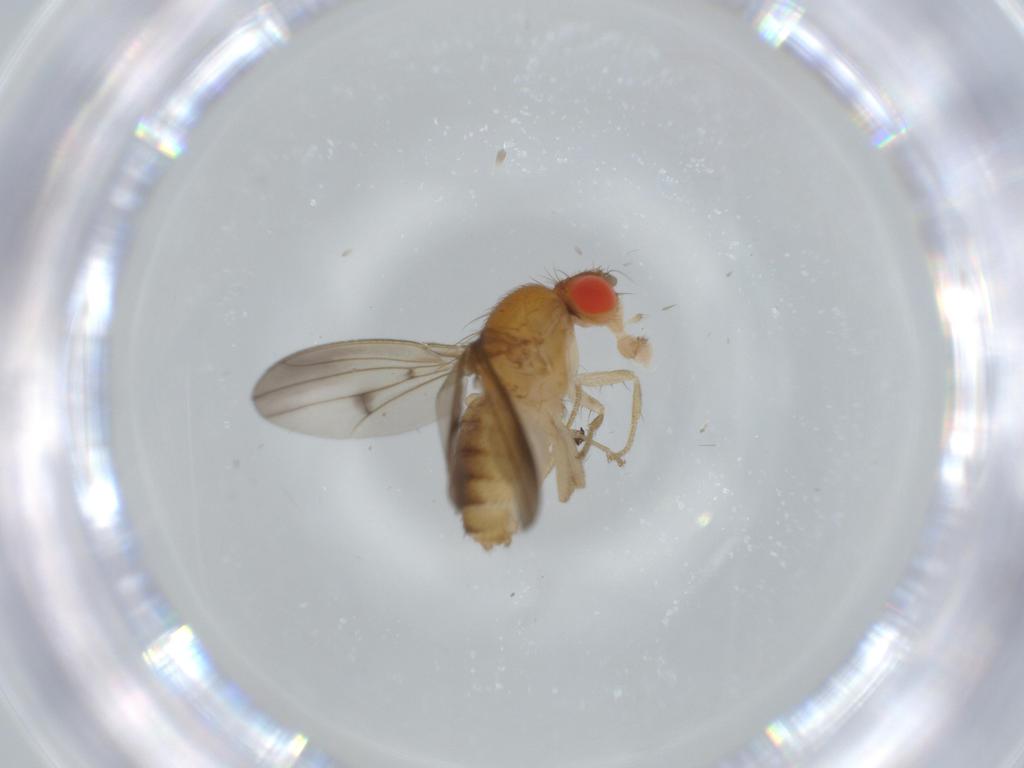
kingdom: Animalia
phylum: Arthropoda
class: Insecta
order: Diptera
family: Drosophilidae
